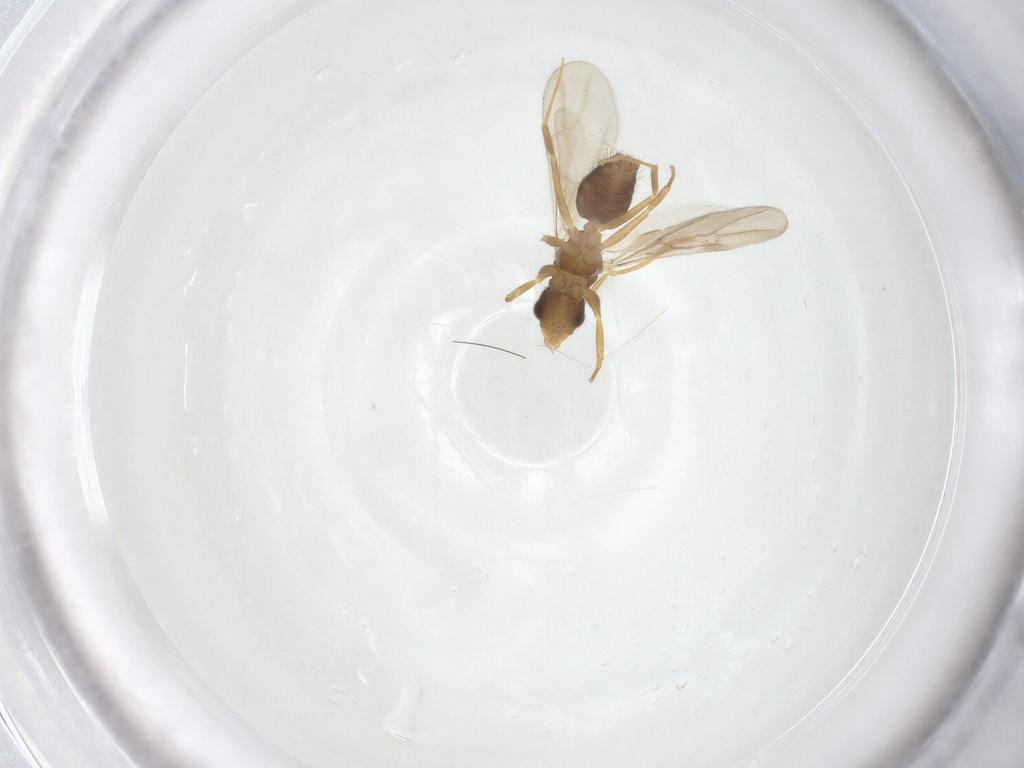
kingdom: Animalia
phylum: Arthropoda
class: Insecta
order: Hymenoptera
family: Formicidae
